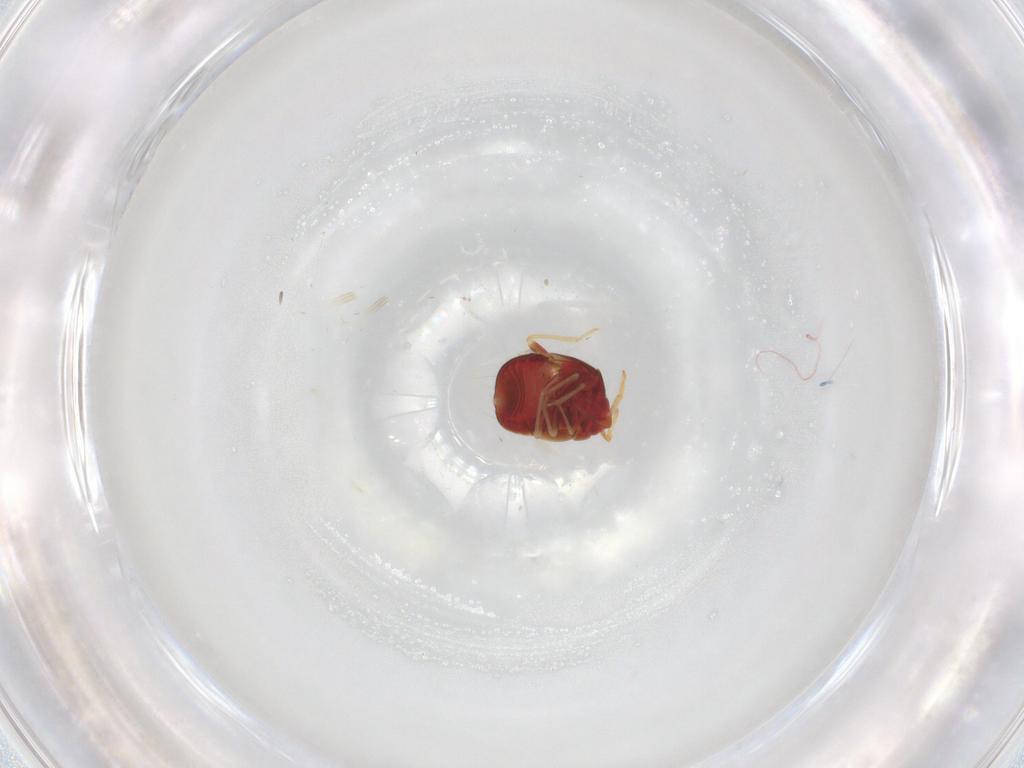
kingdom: Animalia
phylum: Arthropoda
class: Insecta
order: Hemiptera
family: Anthocoridae
